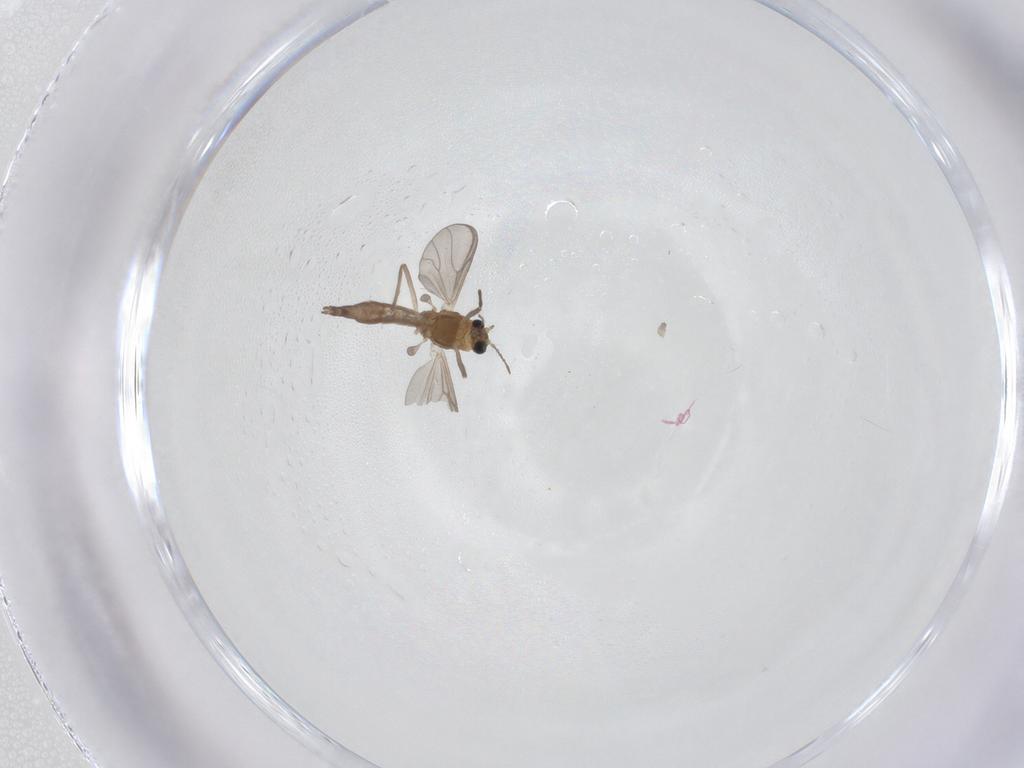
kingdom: Animalia
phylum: Arthropoda
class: Insecta
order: Diptera
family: Chironomidae
